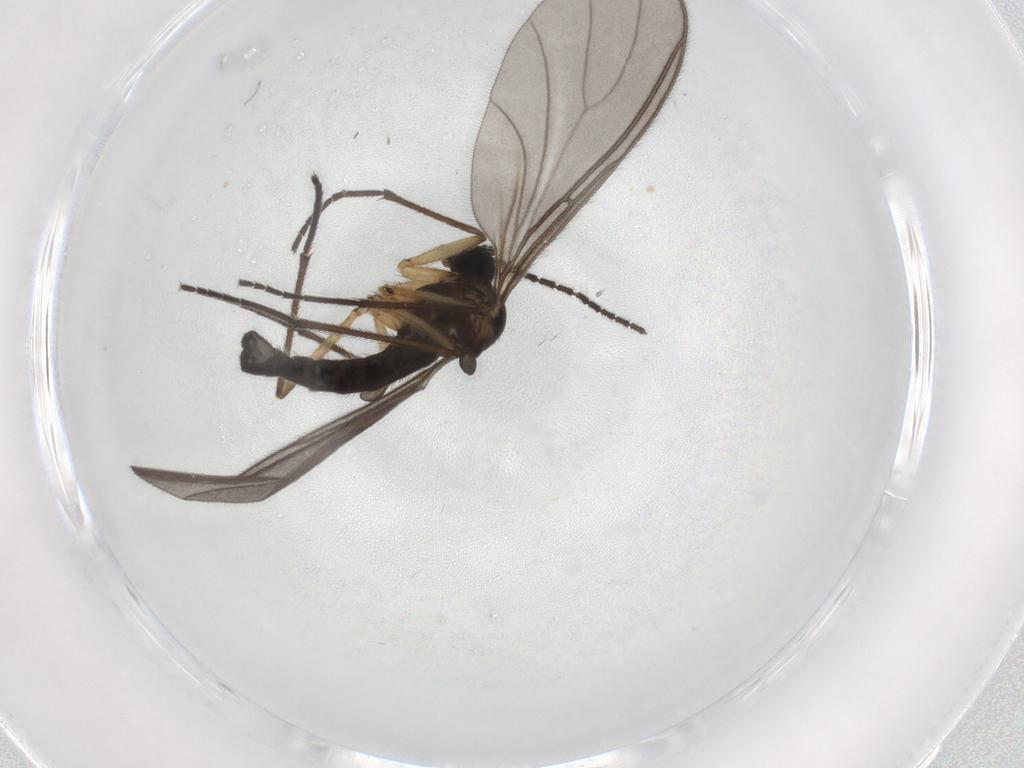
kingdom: Animalia
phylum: Arthropoda
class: Insecta
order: Diptera
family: Sciaridae
